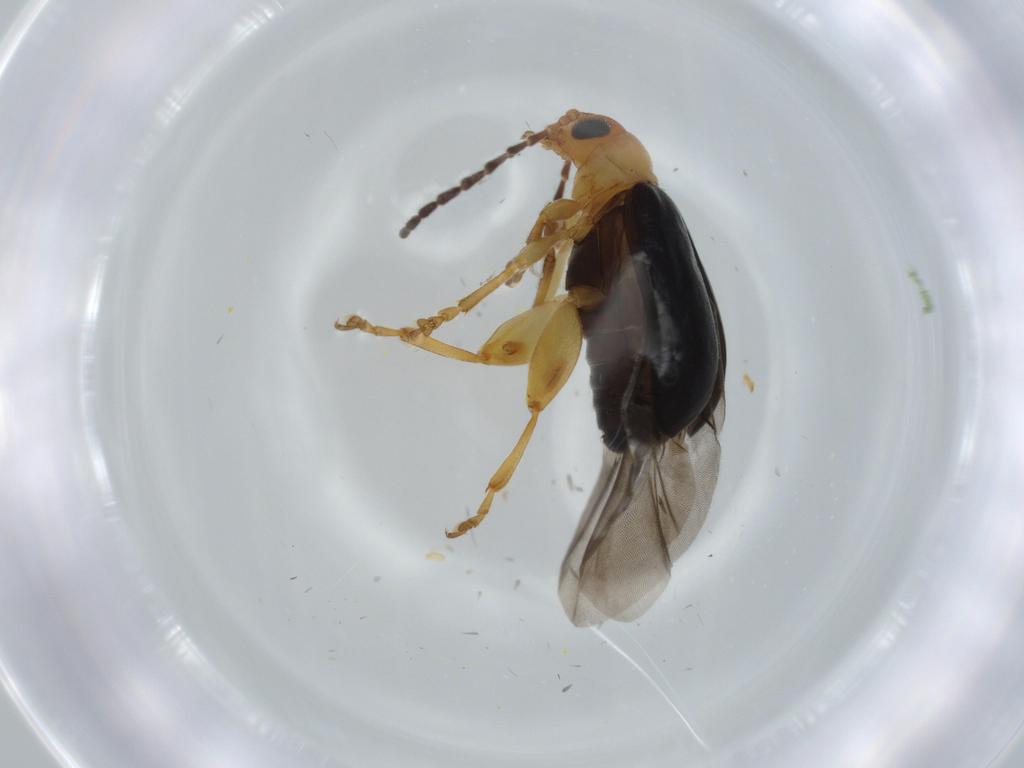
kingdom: Animalia
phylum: Arthropoda
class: Insecta
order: Coleoptera
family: Chrysomelidae
